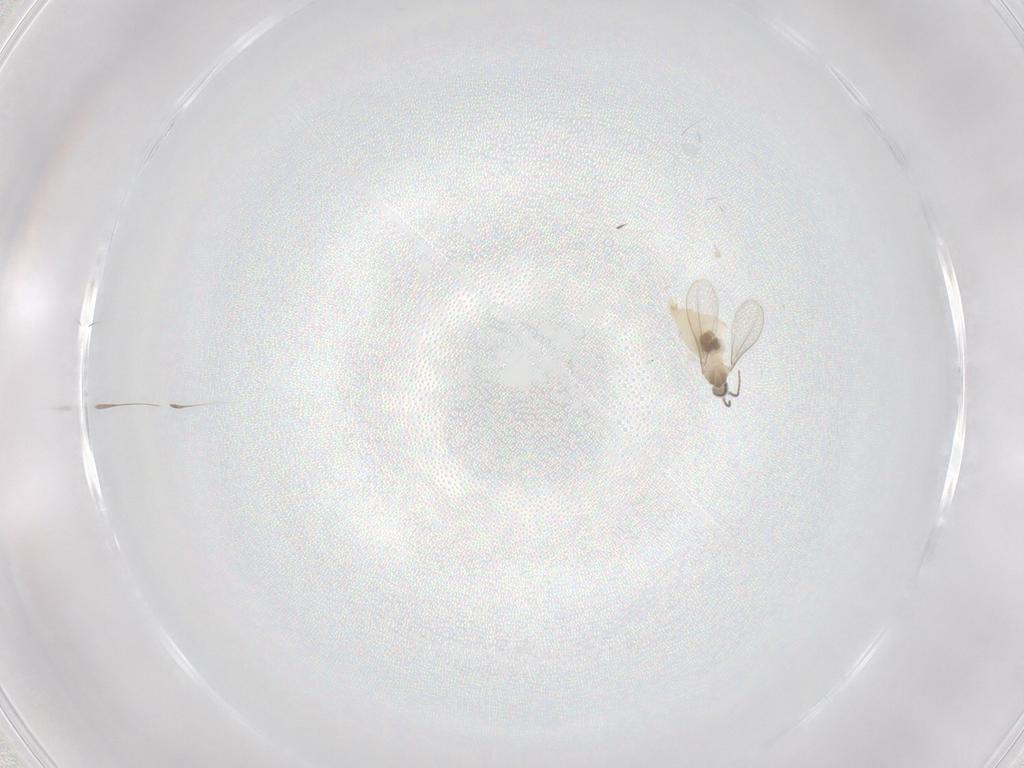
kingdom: Animalia
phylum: Arthropoda
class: Insecta
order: Diptera
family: Cecidomyiidae
